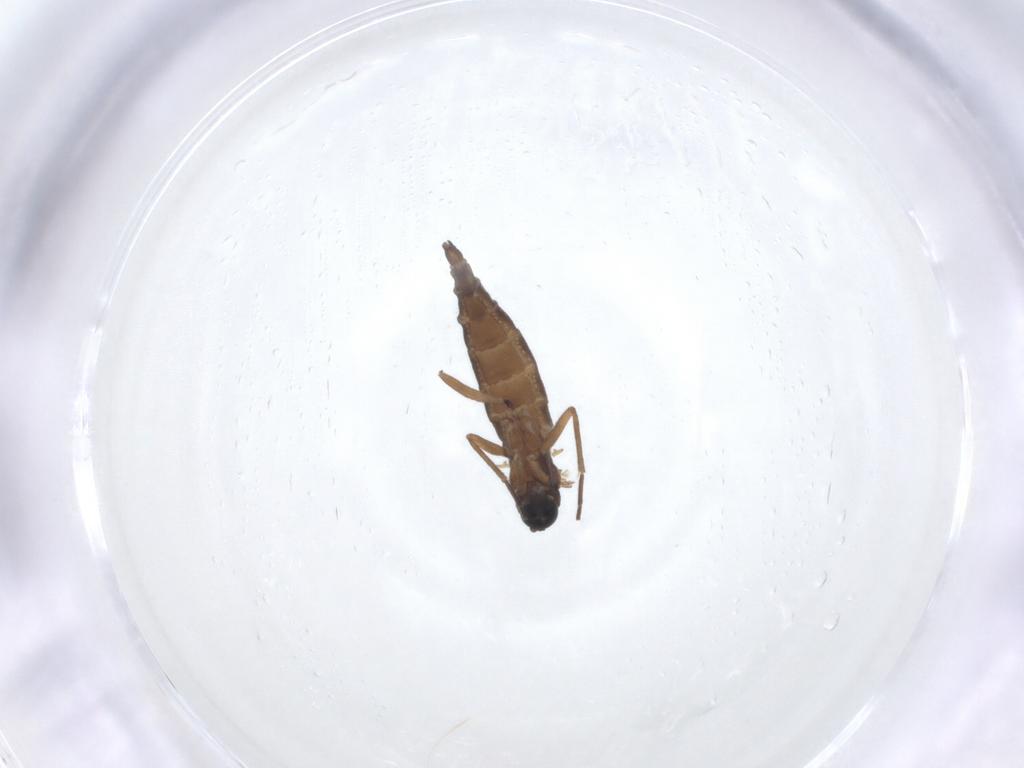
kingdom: Animalia
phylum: Arthropoda
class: Insecta
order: Diptera
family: Sciaridae
